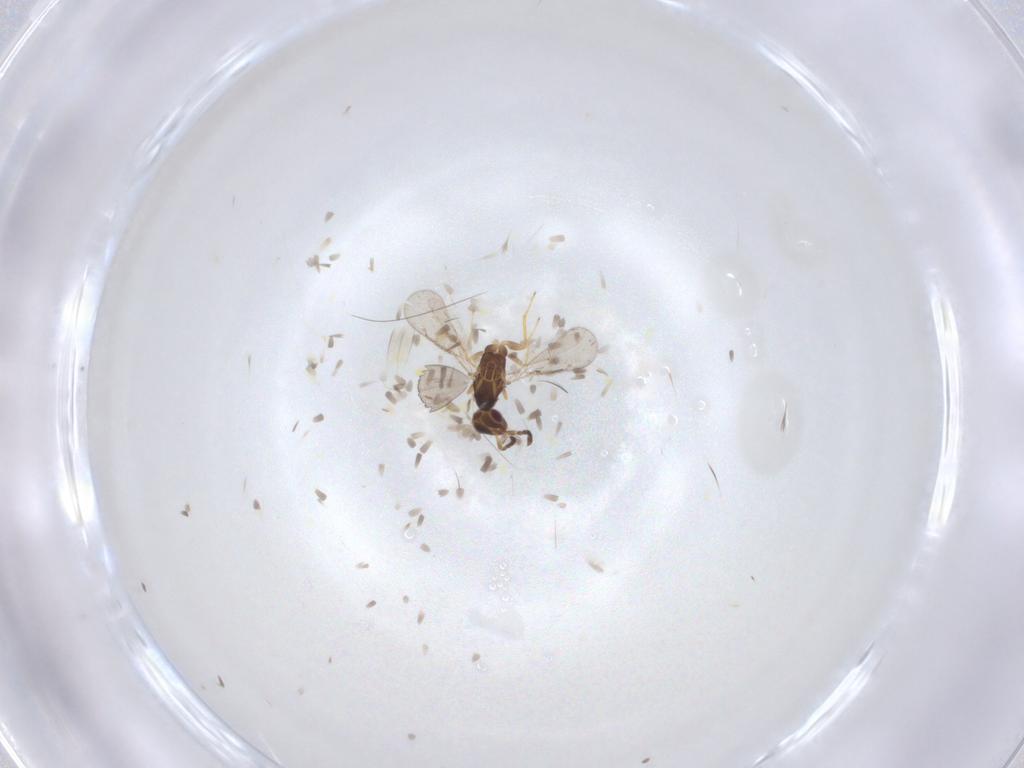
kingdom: Animalia
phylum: Arthropoda
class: Insecta
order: Hymenoptera
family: Eulophidae
